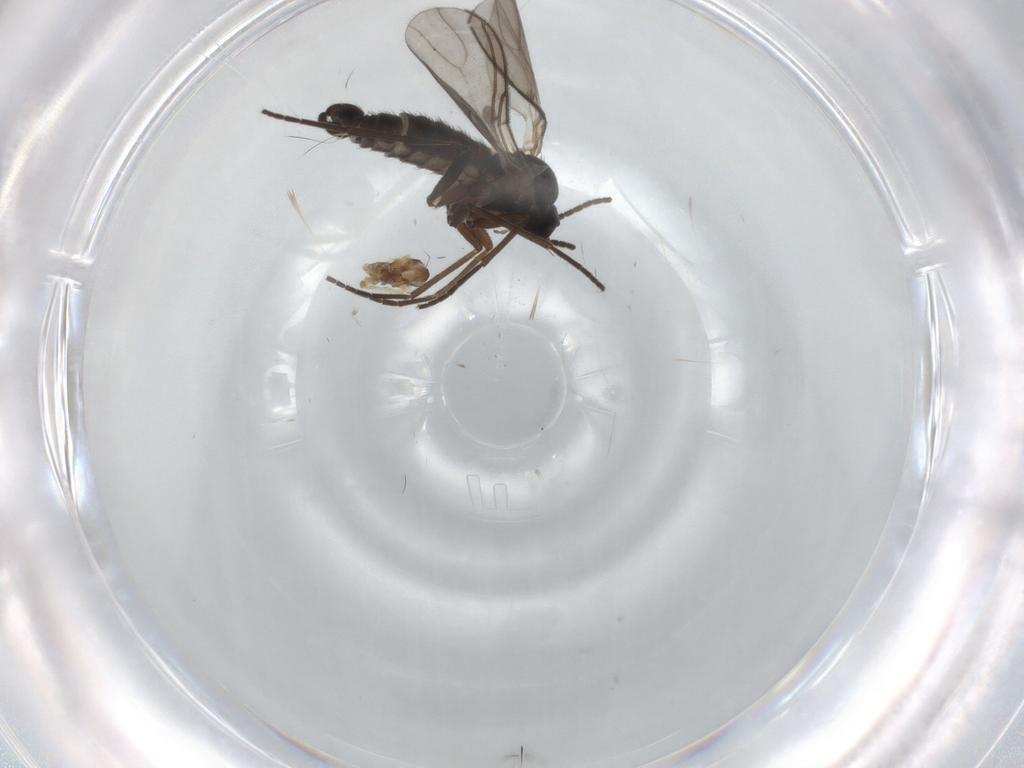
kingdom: Animalia
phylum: Arthropoda
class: Insecta
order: Diptera
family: Sciaridae
